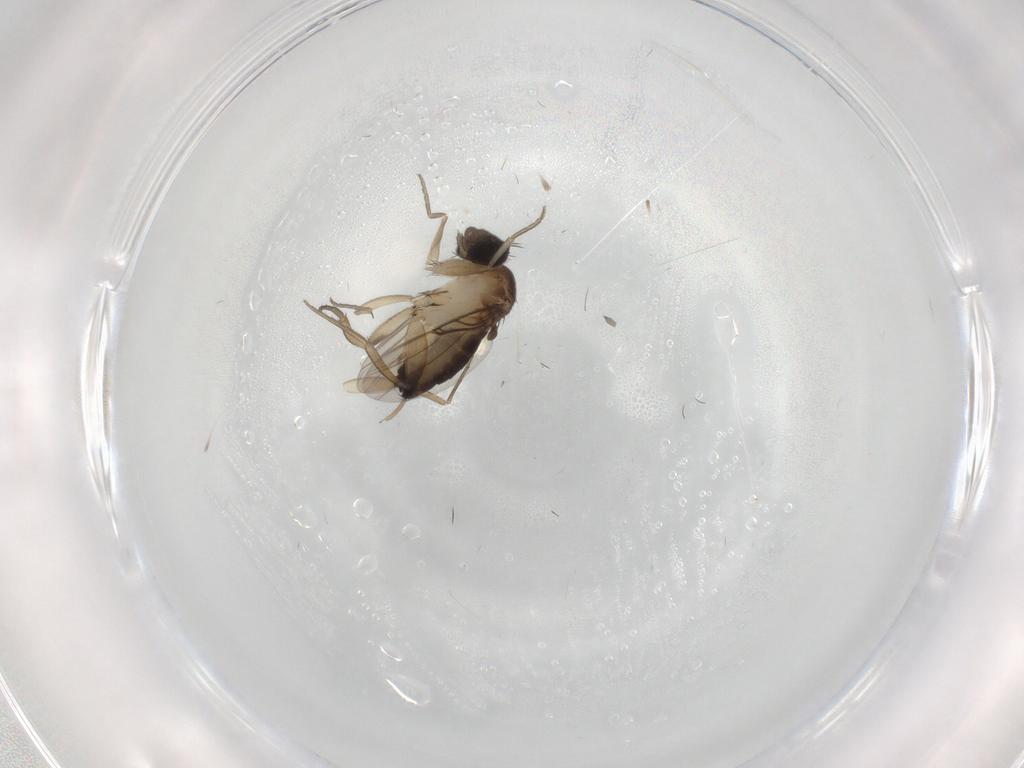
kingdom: Animalia
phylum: Arthropoda
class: Insecta
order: Diptera
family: Phoridae
